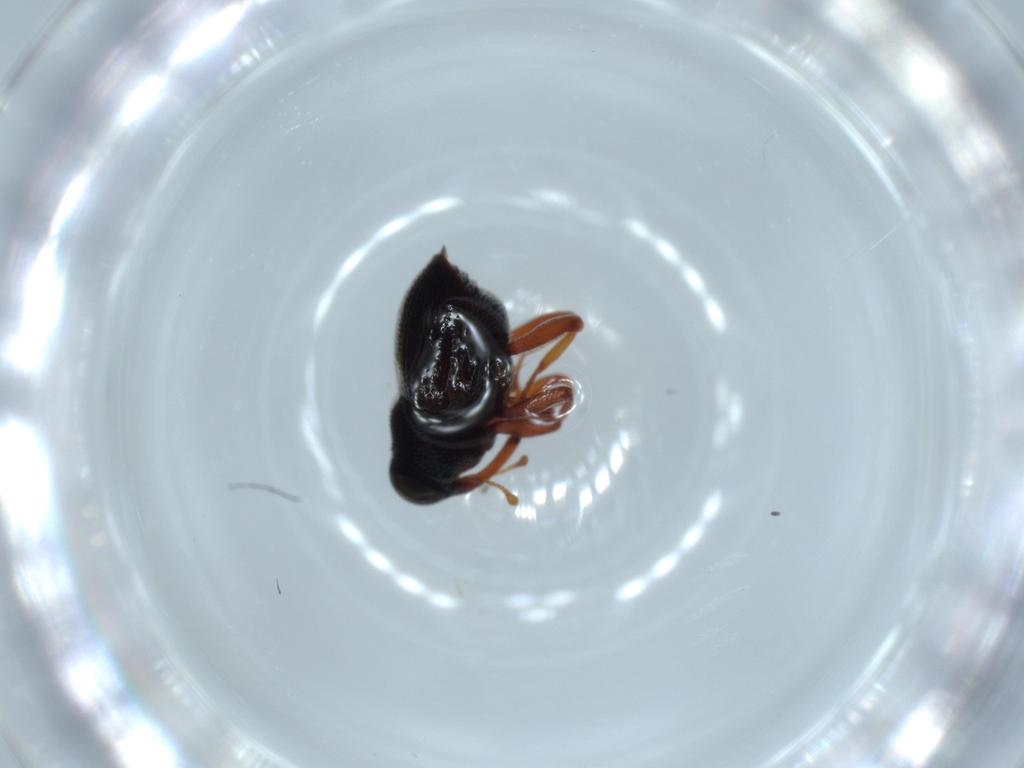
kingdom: Animalia
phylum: Arthropoda
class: Insecta
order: Coleoptera
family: Curculionidae
